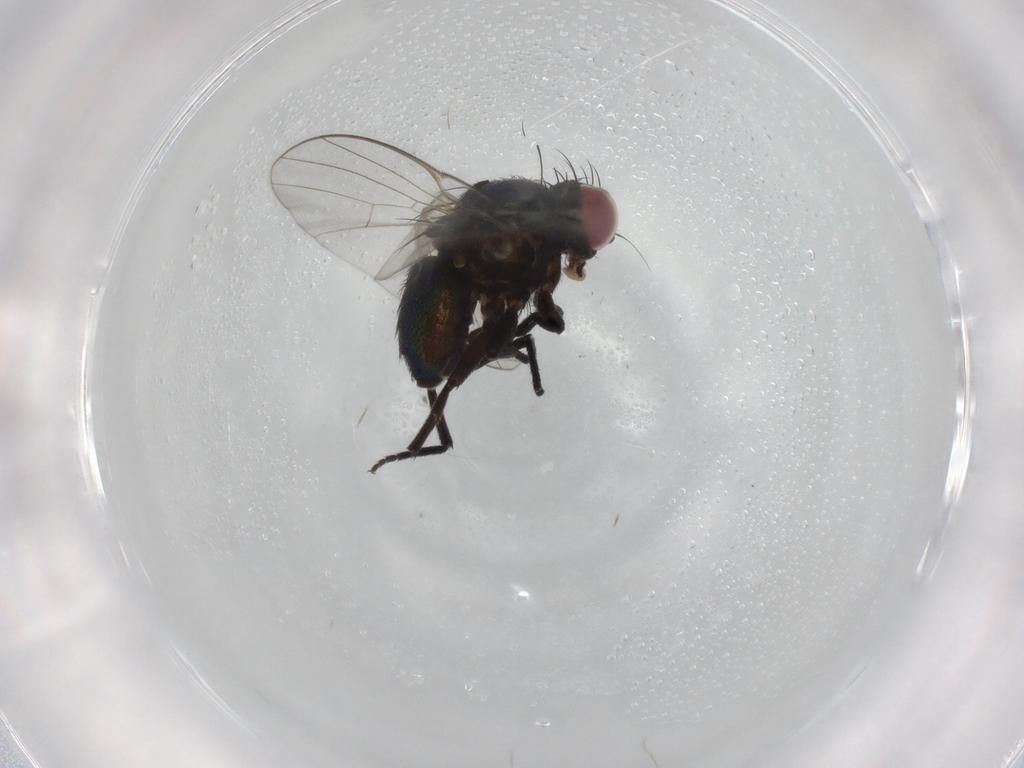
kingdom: Animalia
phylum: Arthropoda
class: Insecta
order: Diptera
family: Agromyzidae
